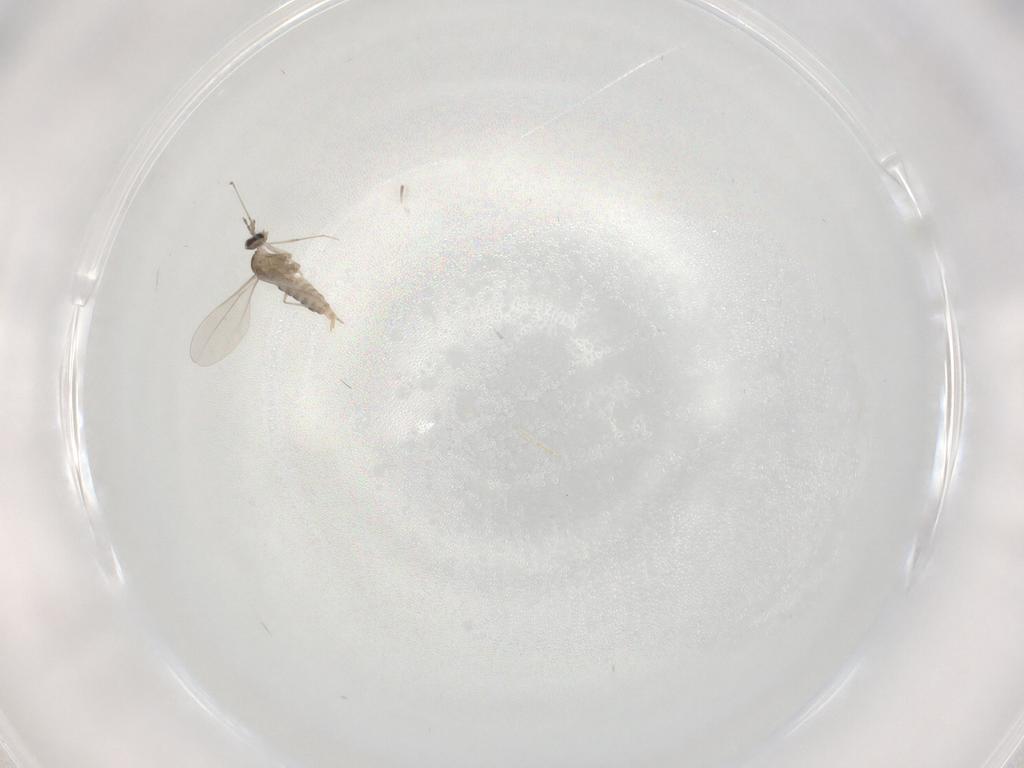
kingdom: Animalia
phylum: Arthropoda
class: Insecta
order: Diptera
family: Cecidomyiidae
